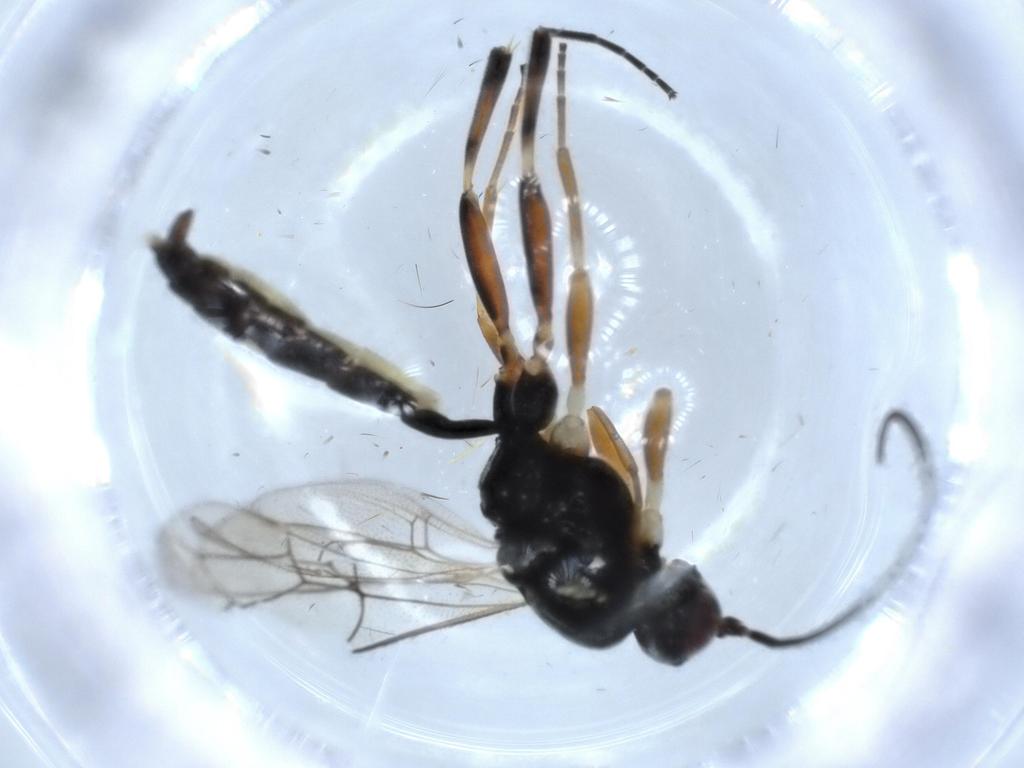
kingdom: Animalia
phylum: Arthropoda
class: Insecta
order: Hymenoptera
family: Ichneumonidae
